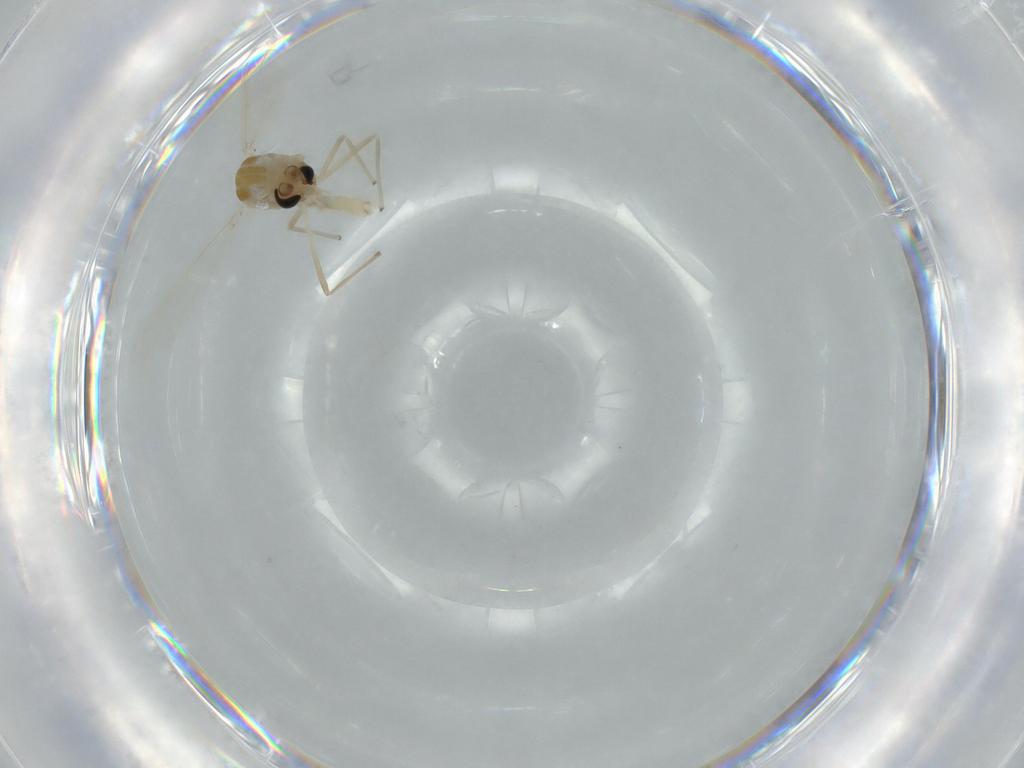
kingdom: Animalia
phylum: Arthropoda
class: Insecta
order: Diptera
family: Chironomidae
